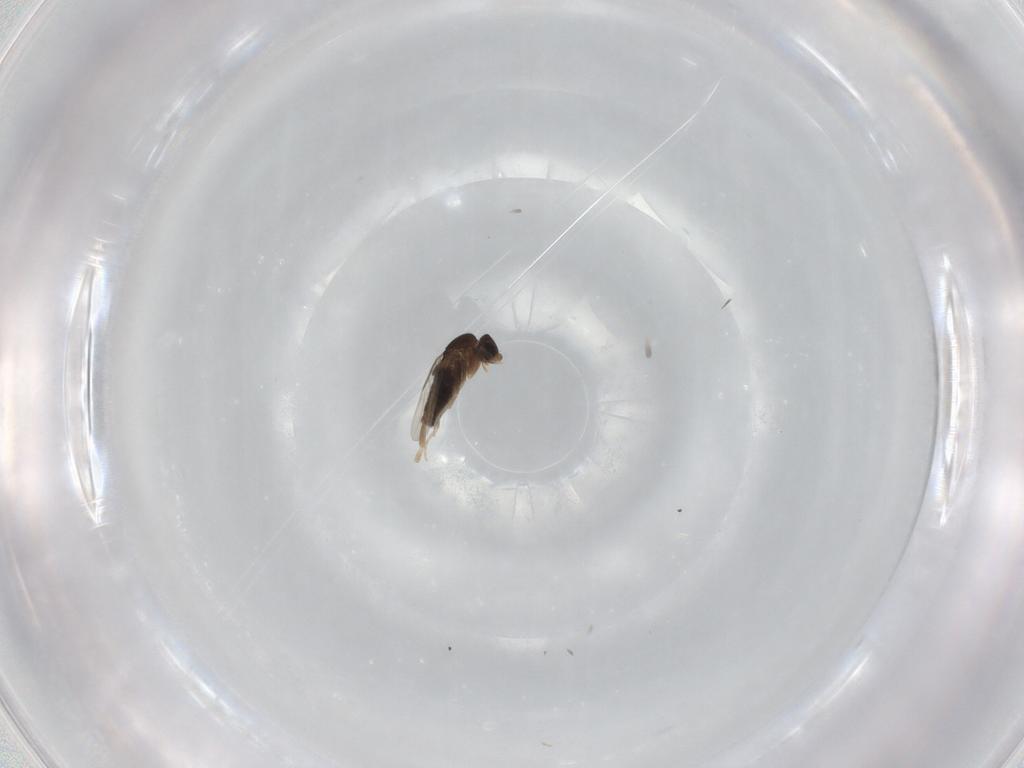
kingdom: Animalia
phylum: Arthropoda
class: Insecta
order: Diptera
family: Phoridae
